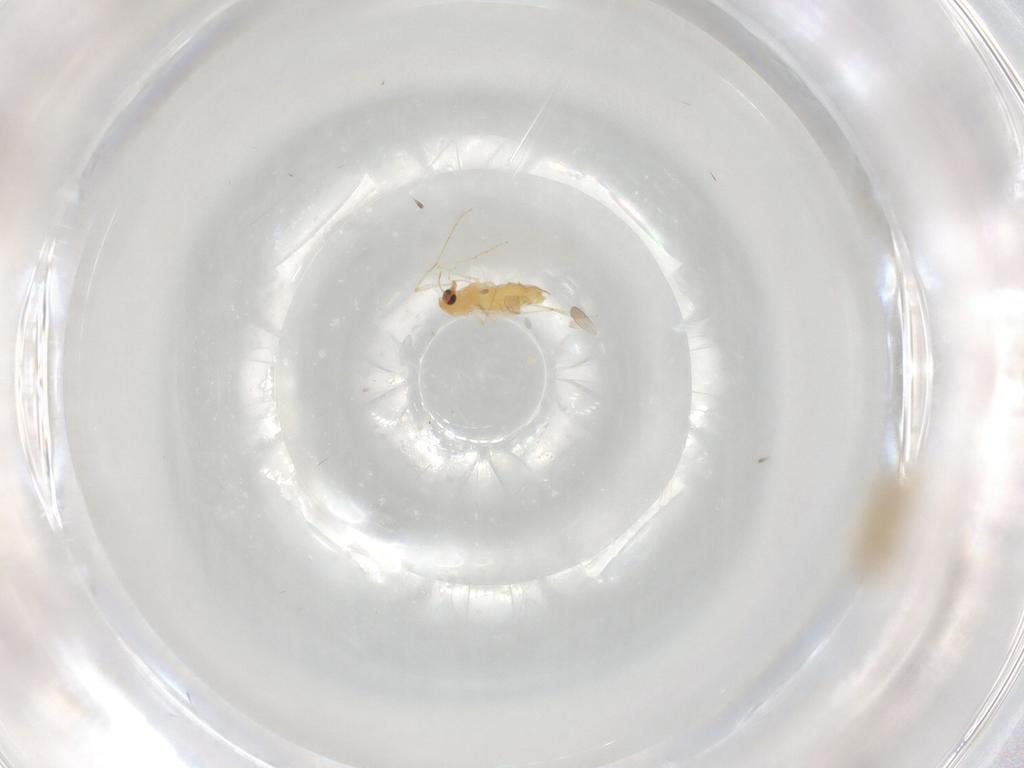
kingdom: Animalia
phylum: Arthropoda
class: Insecta
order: Diptera
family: Chironomidae
